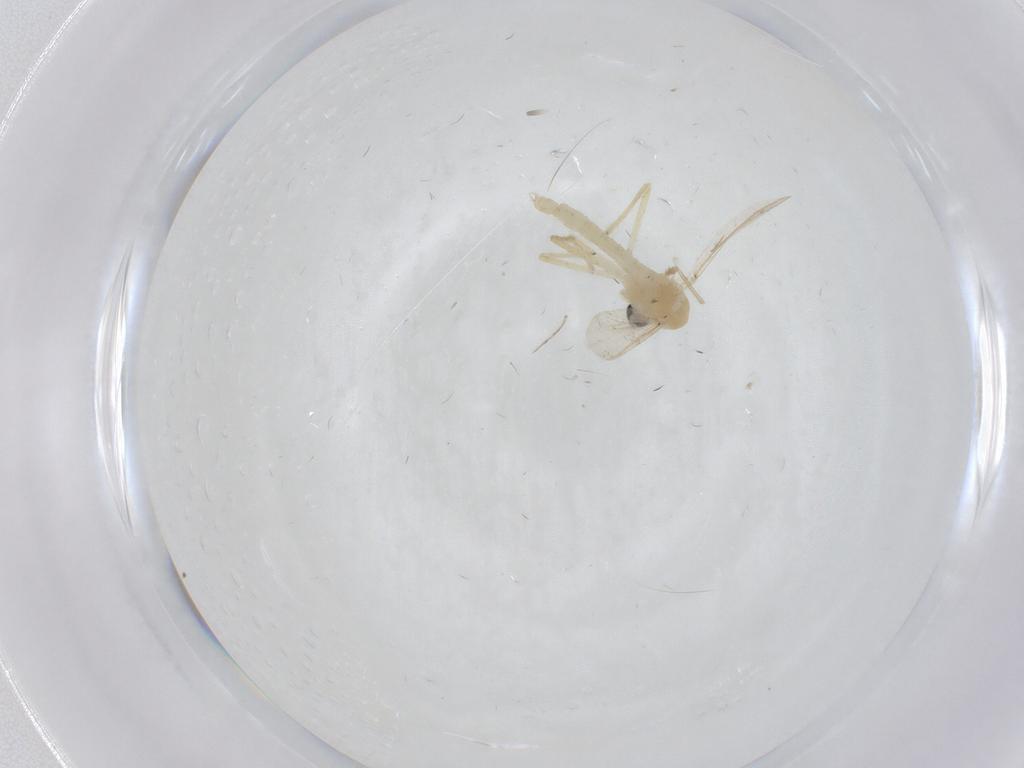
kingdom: Animalia
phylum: Arthropoda
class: Insecta
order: Diptera
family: Chironomidae
